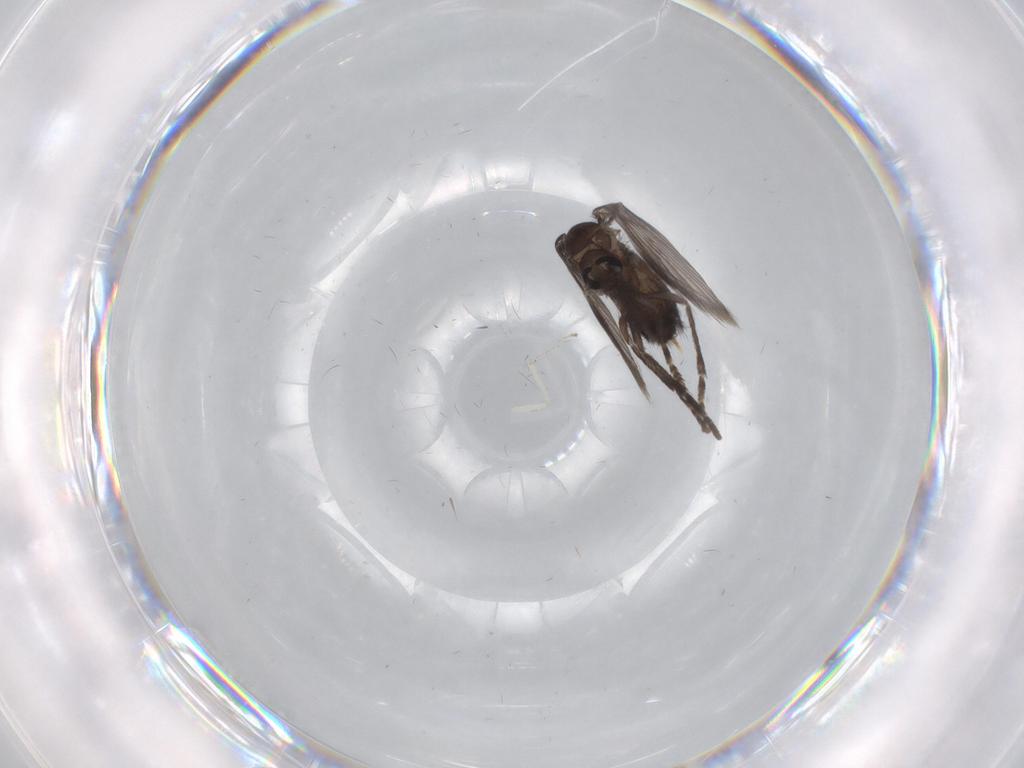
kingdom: Animalia
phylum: Arthropoda
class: Insecta
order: Diptera
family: Psychodidae
